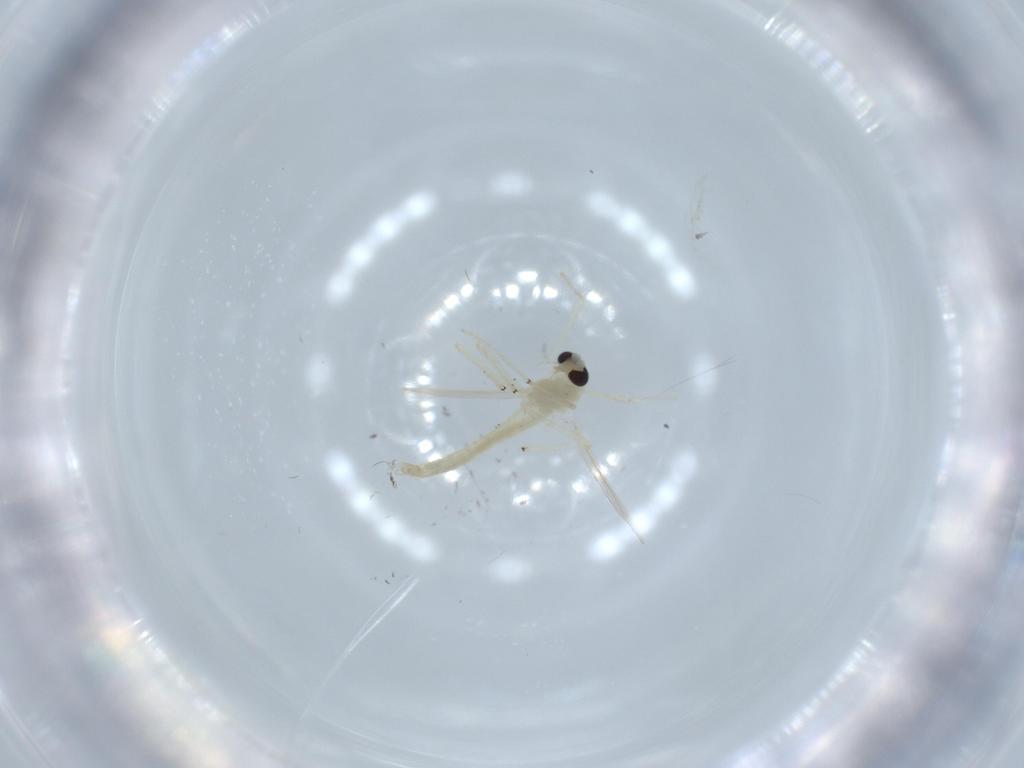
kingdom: Animalia
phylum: Arthropoda
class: Insecta
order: Diptera
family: Chironomidae
